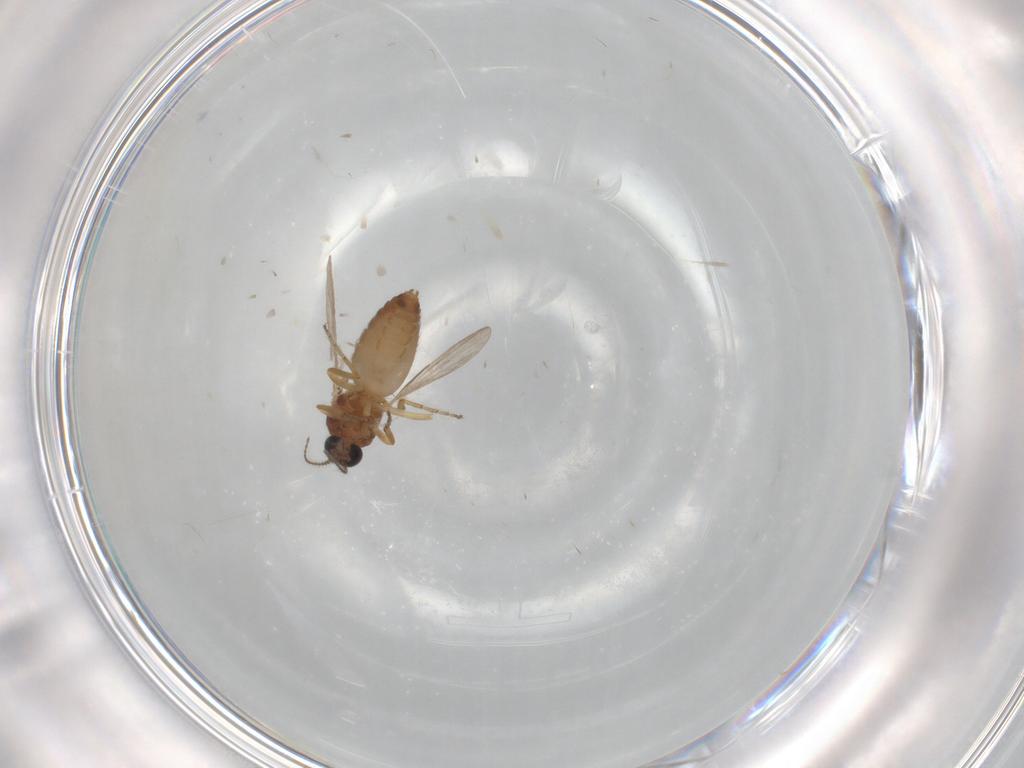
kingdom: Animalia
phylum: Arthropoda
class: Insecta
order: Diptera
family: Ceratopogonidae
